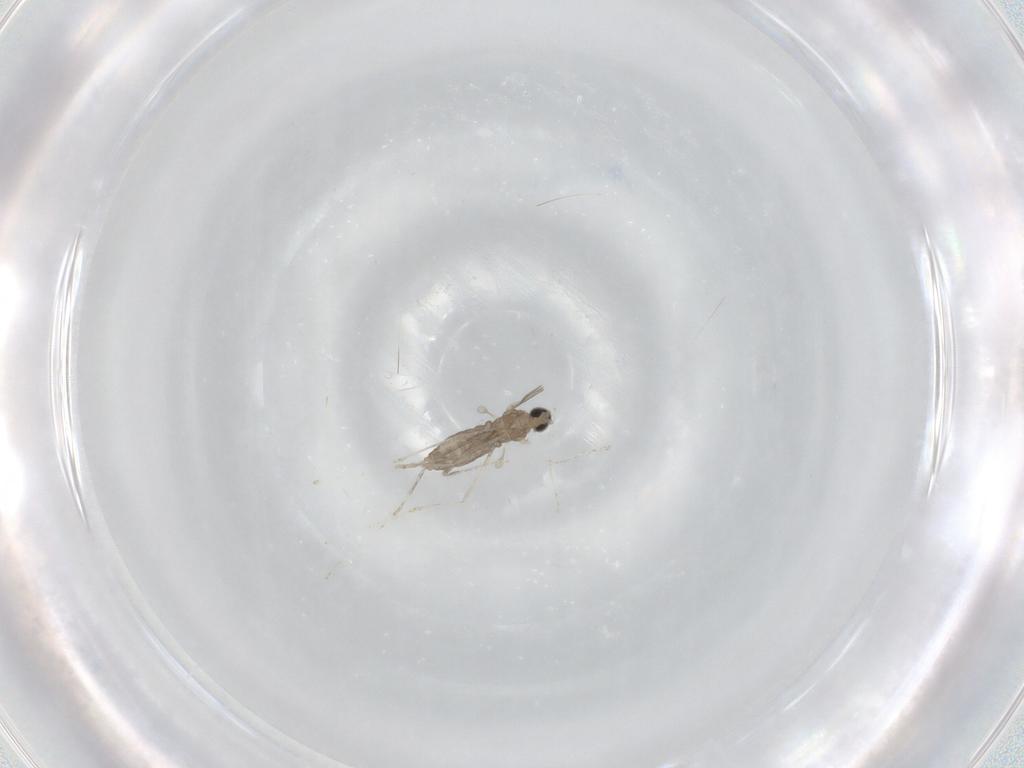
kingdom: Animalia
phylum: Arthropoda
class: Insecta
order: Diptera
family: Cecidomyiidae
